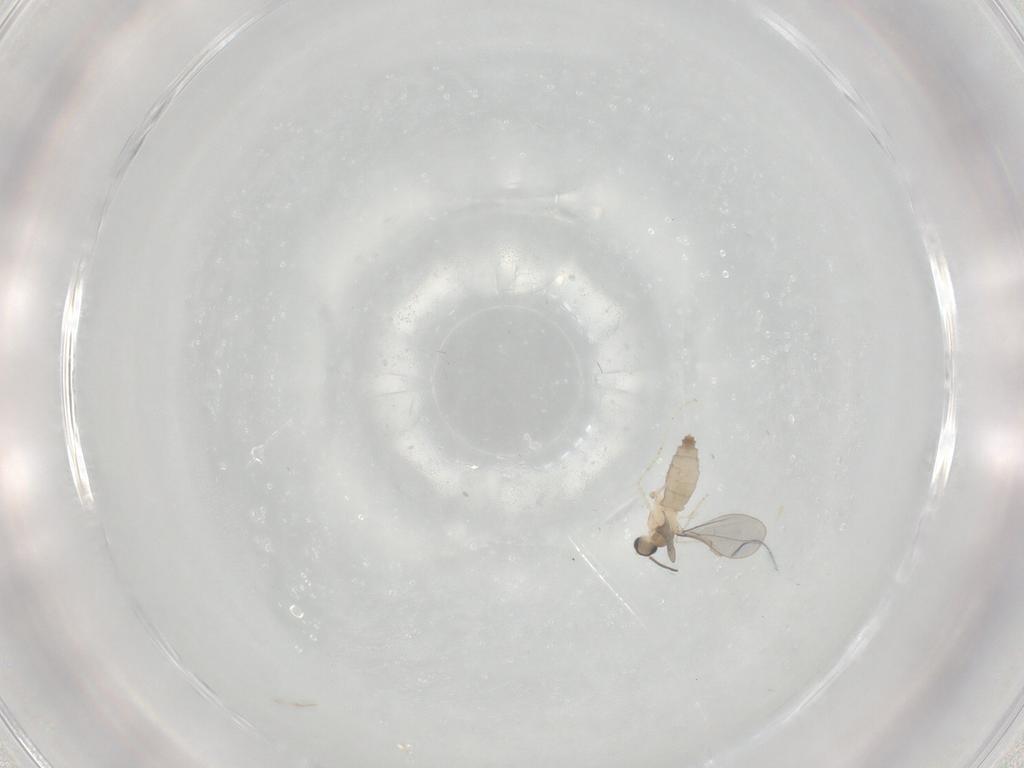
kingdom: Animalia
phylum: Arthropoda
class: Insecta
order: Diptera
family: Cecidomyiidae
